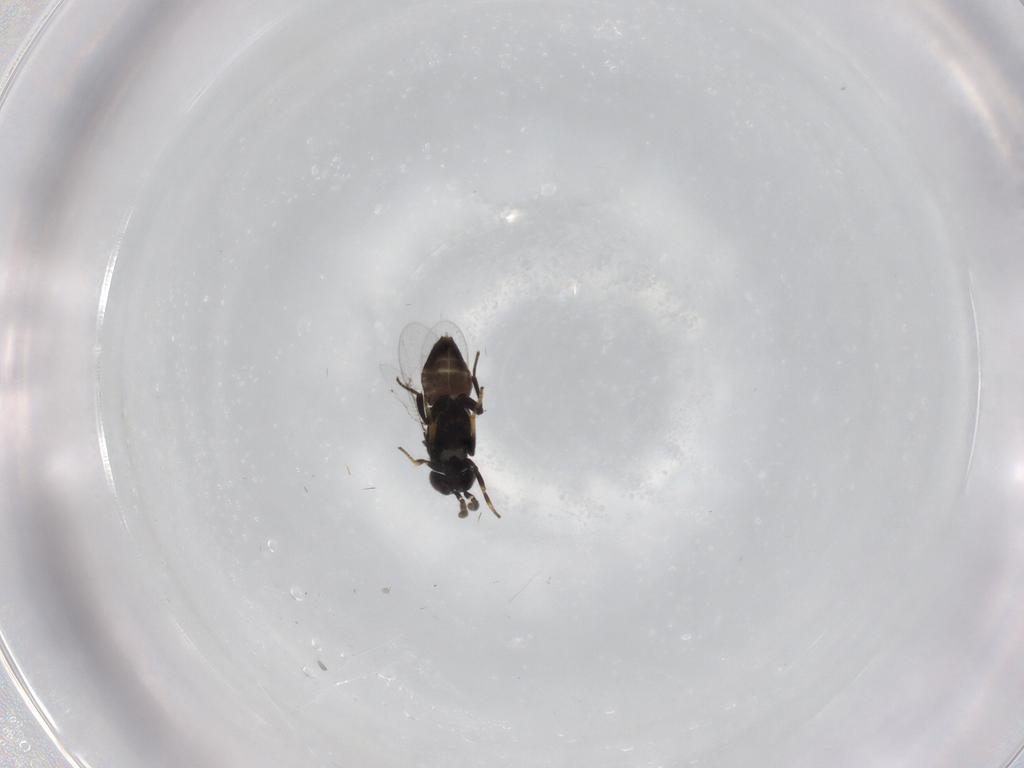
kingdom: Animalia
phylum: Arthropoda
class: Insecta
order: Hymenoptera
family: Encyrtidae
